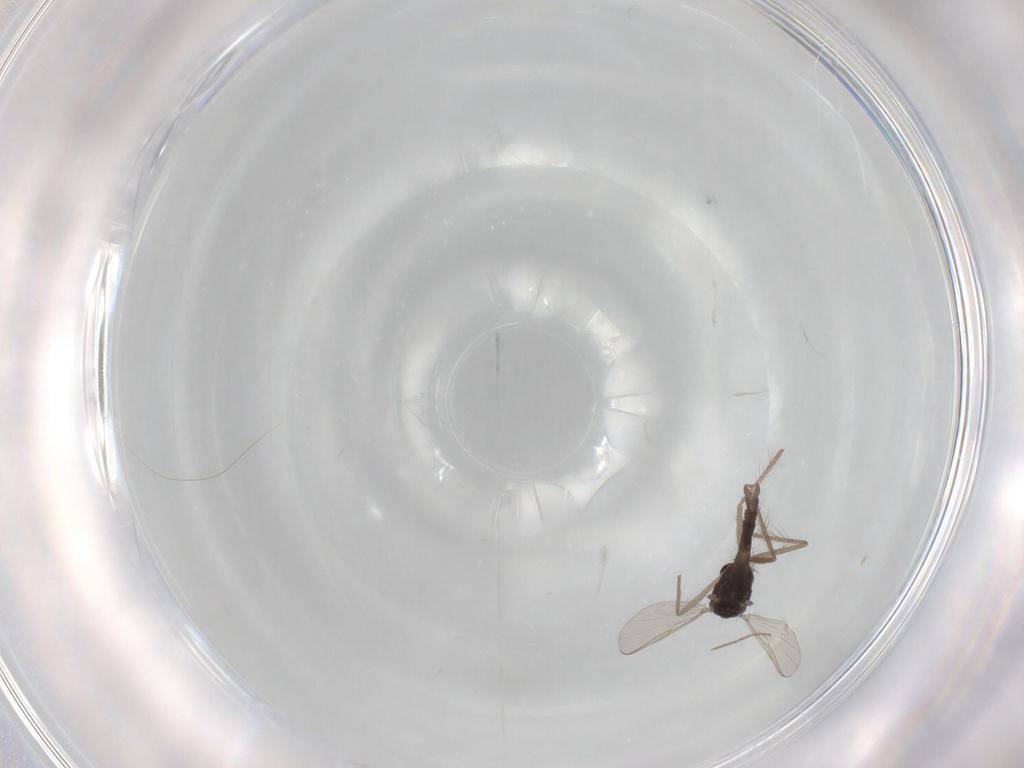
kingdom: Animalia
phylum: Arthropoda
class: Insecta
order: Diptera
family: Chironomidae
